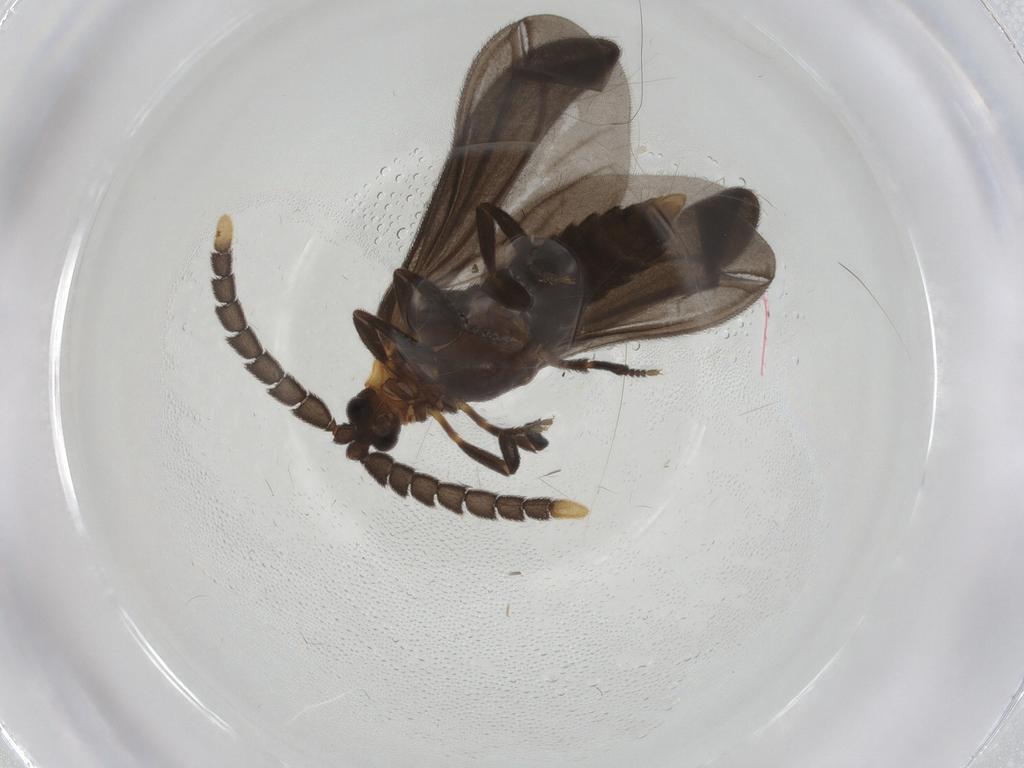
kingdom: Animalia
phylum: Arthropoda
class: Insecta
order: Coleoptera
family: Lycidae
